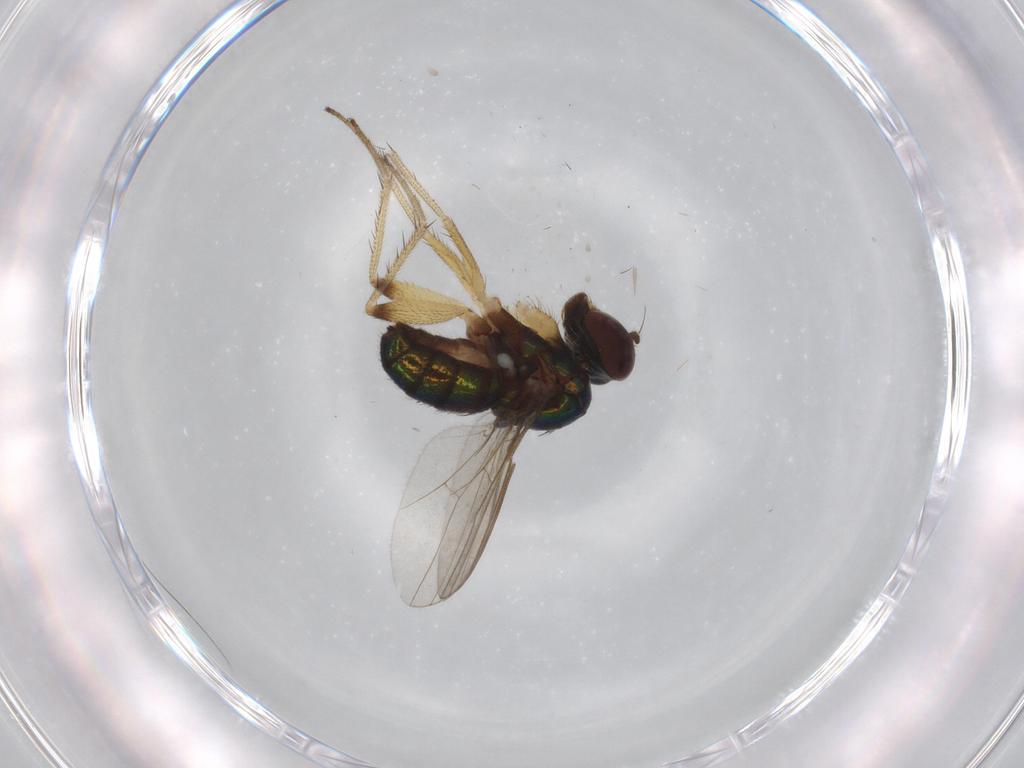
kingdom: Animalia
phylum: Arthropoda
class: Insecta
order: Diptera
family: Dolichopodidae
